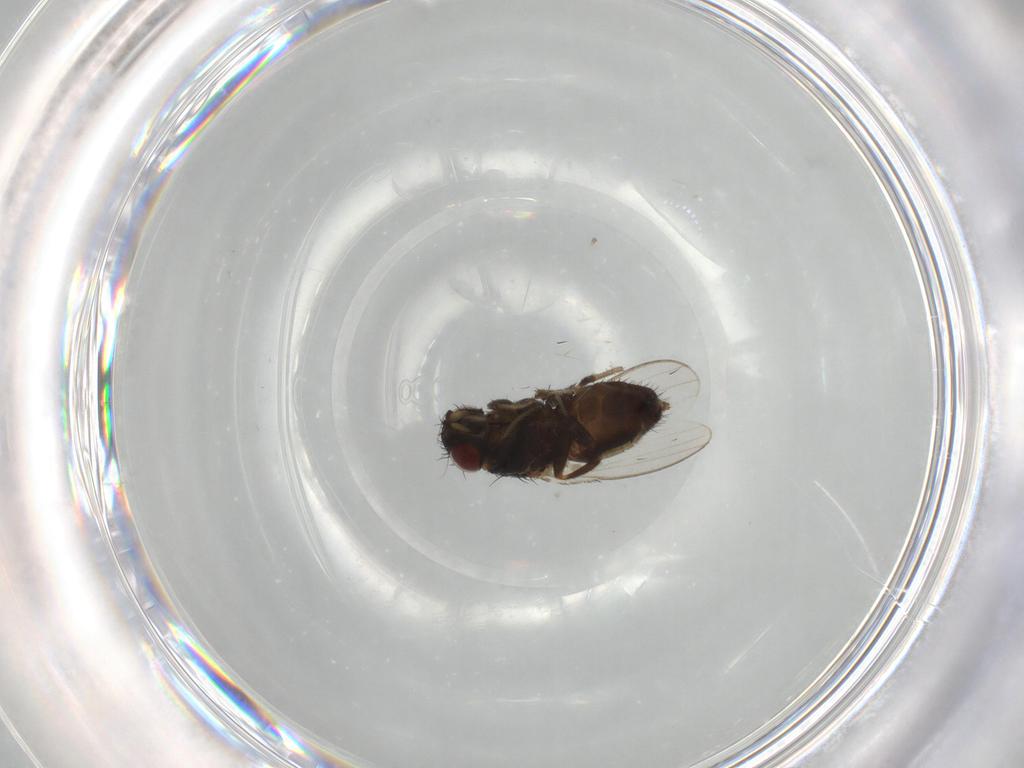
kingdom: Animalia
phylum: Arthropoda
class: Insecta
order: Diptera
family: Milichiidae
